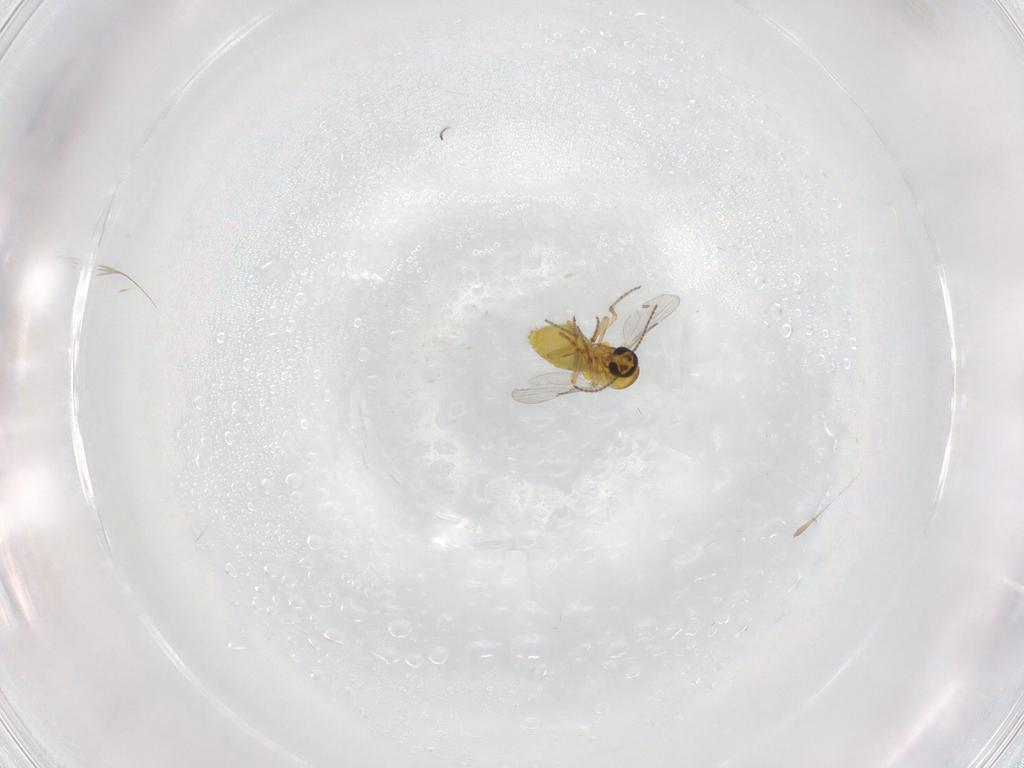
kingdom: Animalia
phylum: Arthropoda
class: Insecta
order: Diptera
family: Ceratopogonidae
